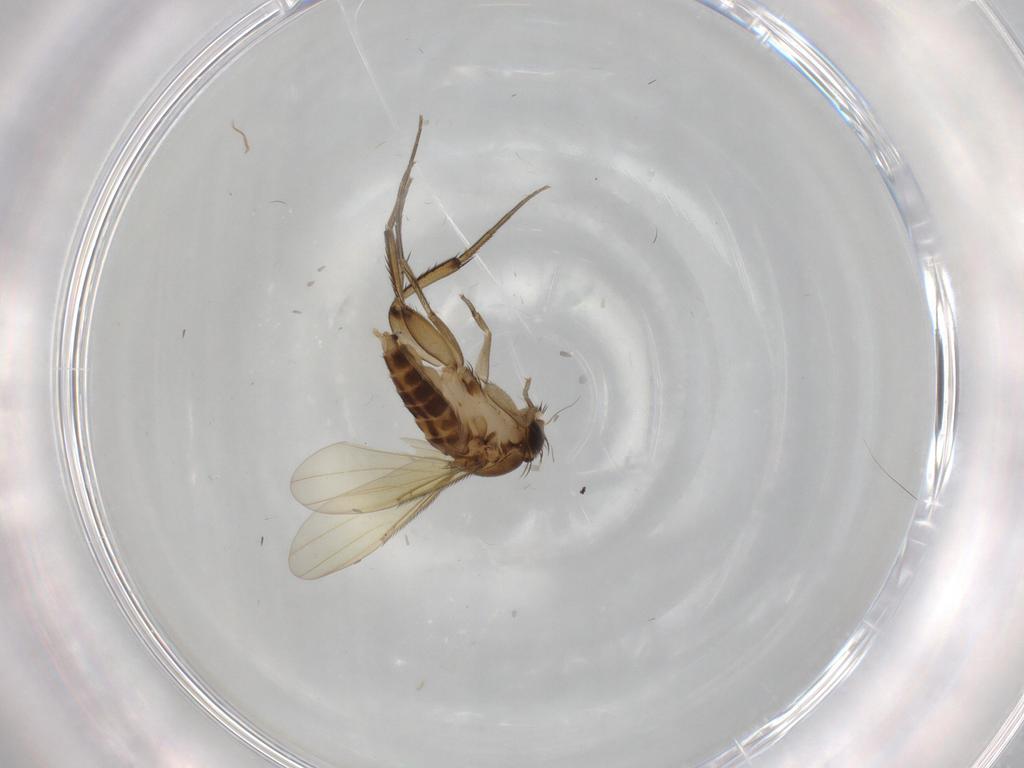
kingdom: Animalia
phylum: Arthropoda
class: Insecta
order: Diptera
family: Phoridae
